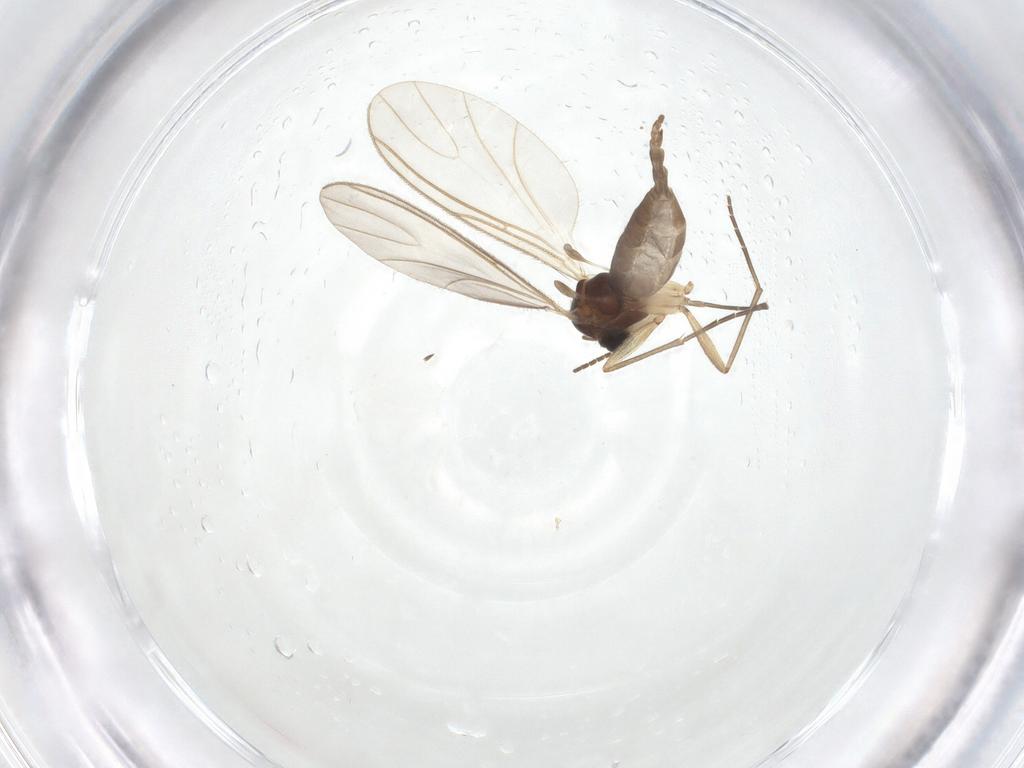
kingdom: Animalia
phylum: Arthropoda
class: Insecta
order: Diptera
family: Sciaridae
